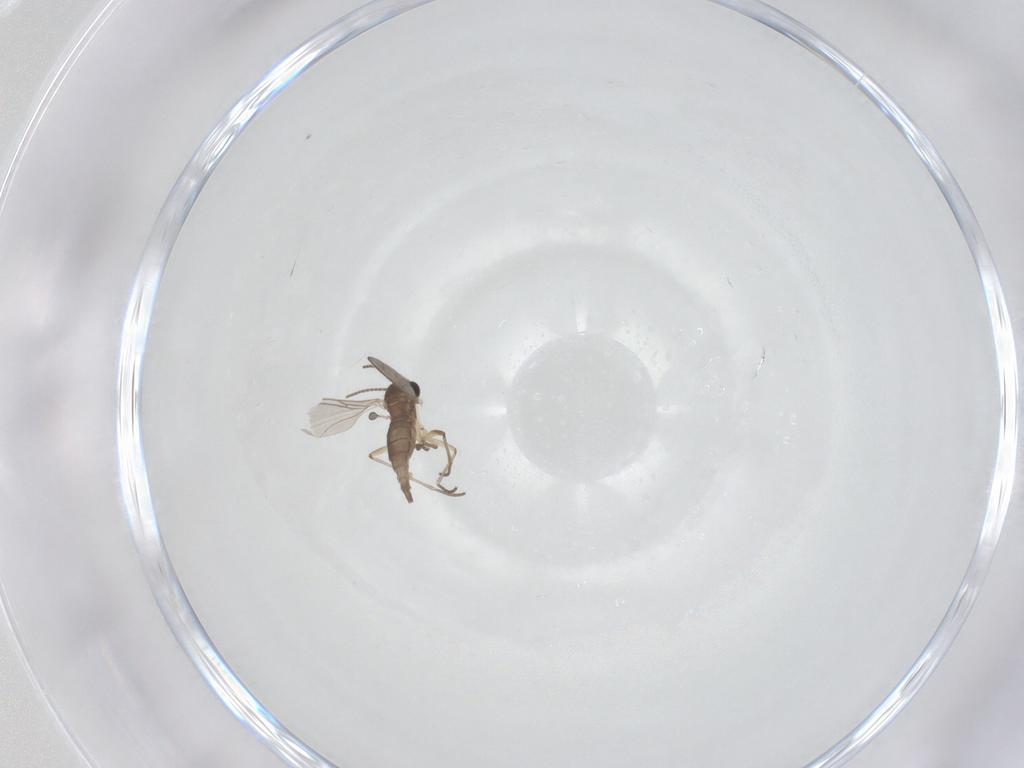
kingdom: Animalia
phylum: Arthropoda
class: Insecta
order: Diptera
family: Sciaridae
